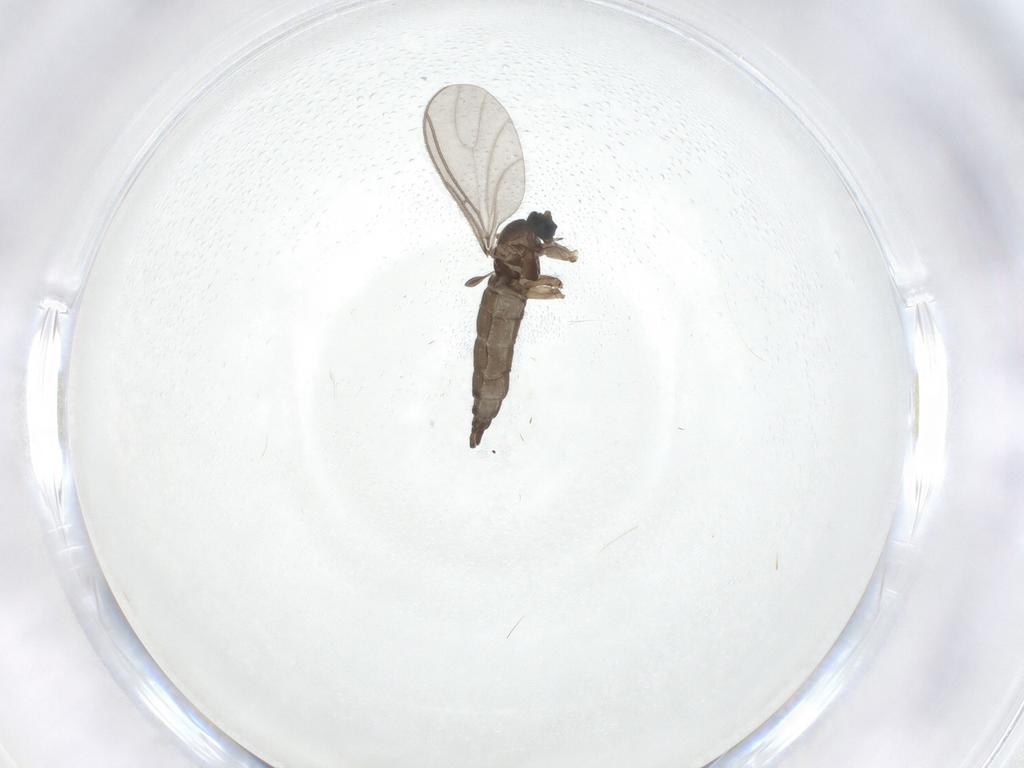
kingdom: Animalia
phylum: Arthropoda
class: Insecta
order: Diptera
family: Sciaridae
